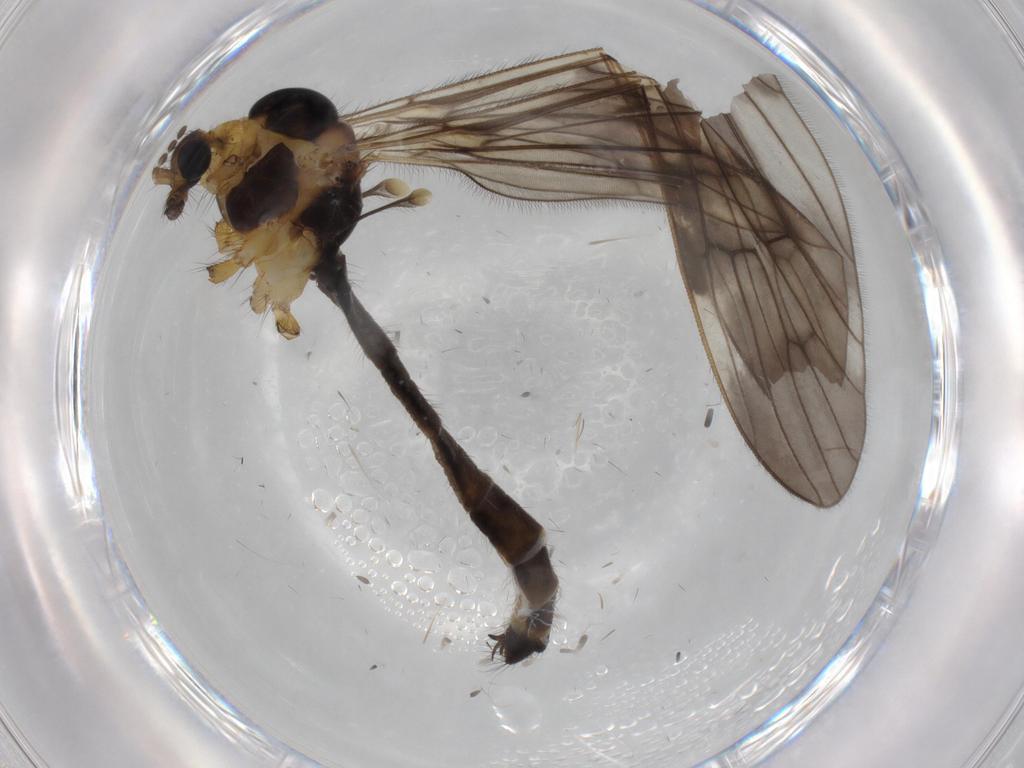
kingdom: Animalia
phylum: Arthropoda
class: Insecta
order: Diptera
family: Limoniidae
